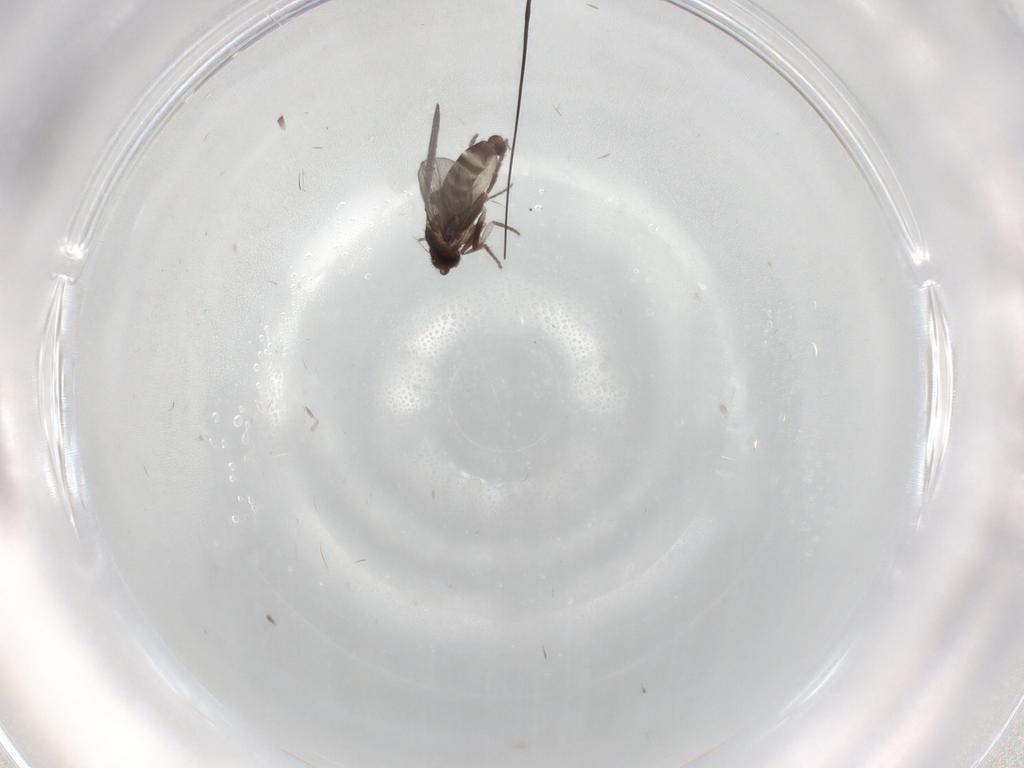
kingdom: Animalia
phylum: Arthropoda
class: Insecta
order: Diptera
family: Phoridae
